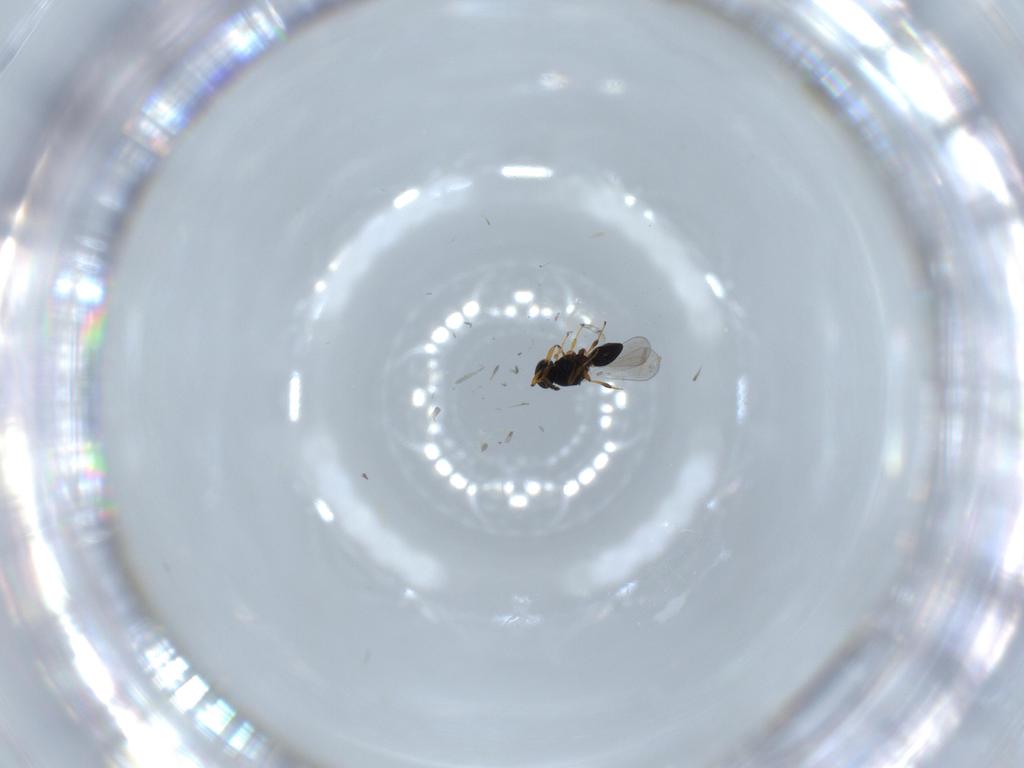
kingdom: Animalia
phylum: Arthropoda
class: Insecta
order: Hymenoptera
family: Platygastridae
